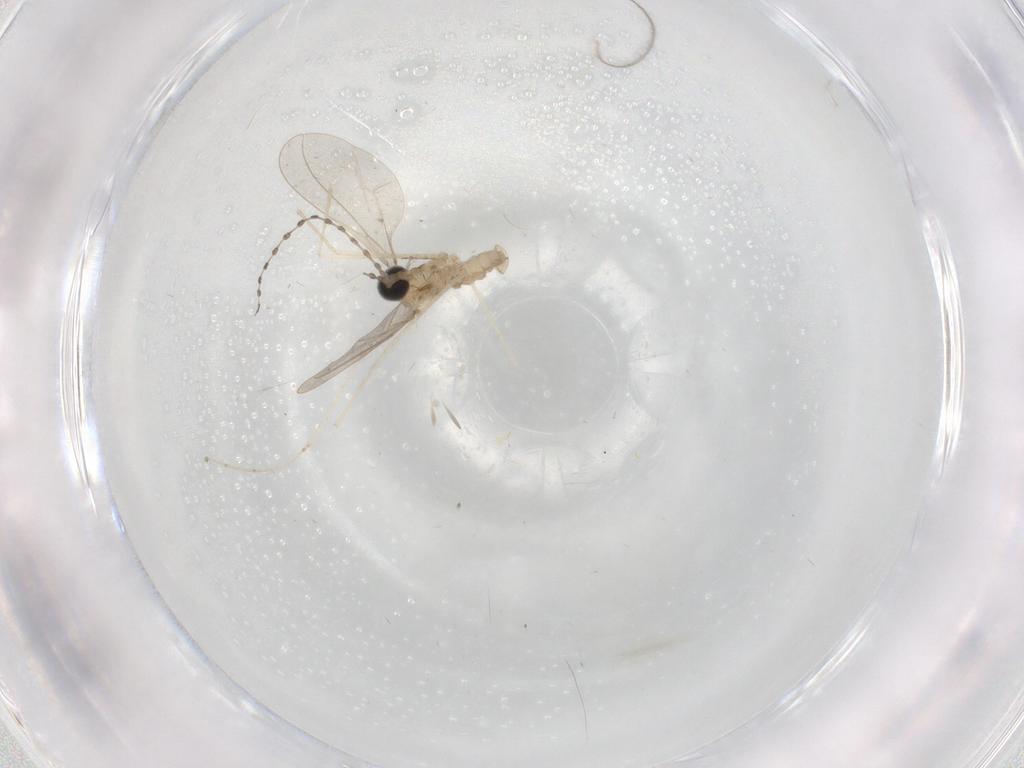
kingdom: Animalia
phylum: Arthropoda
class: Insecta
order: Diptera
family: Cecidomyiidae
